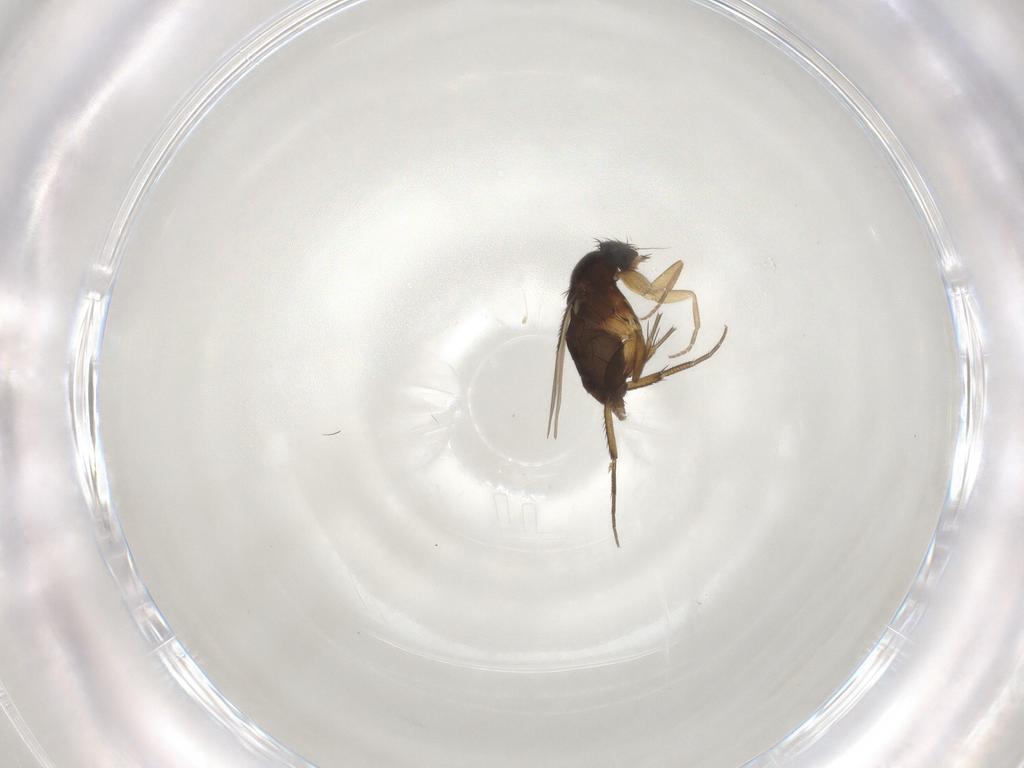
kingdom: Animalia
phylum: Arthropoda
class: Insecta
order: Diptera
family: Phoridae
